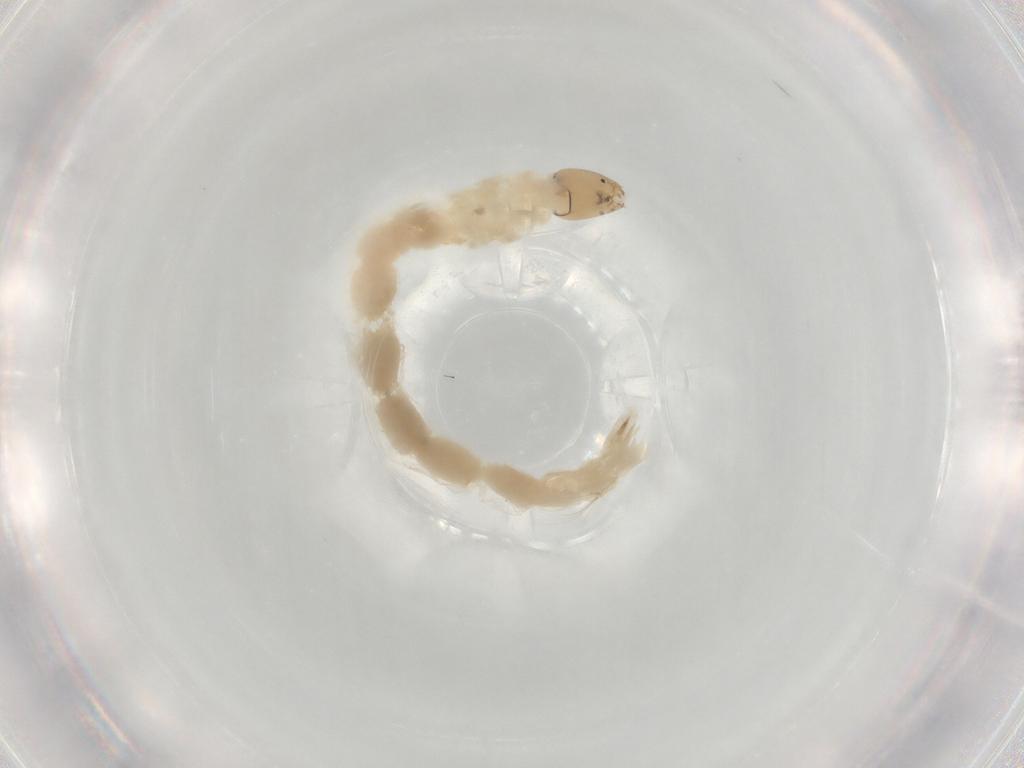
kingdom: Animalia
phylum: Arthropoda
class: Insecta
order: Diptera
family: Chironomidae
